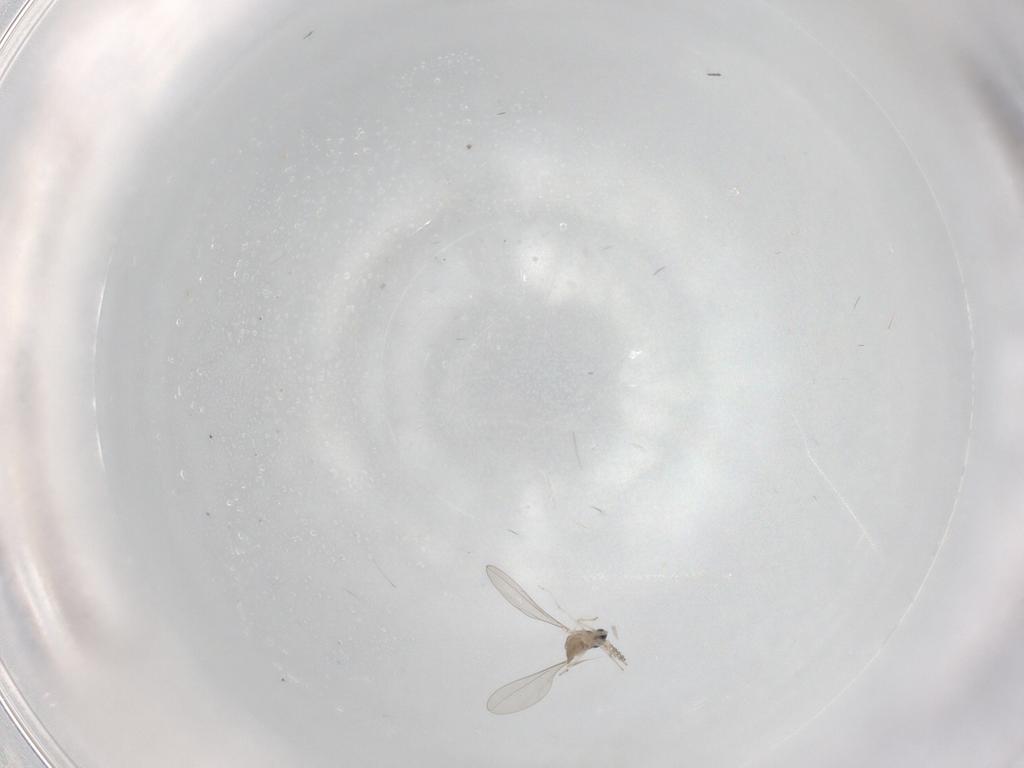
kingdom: Animalia
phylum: Arthropoda
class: Insecta
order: Diptera
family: Cecidomyiidae
